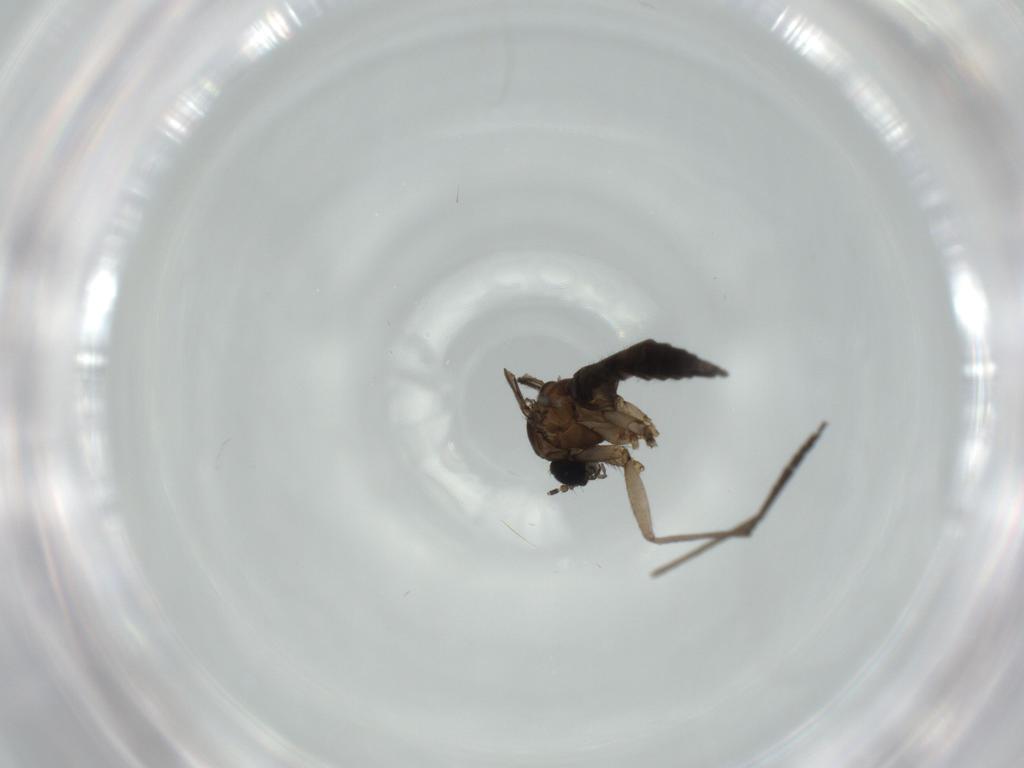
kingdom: Animalia
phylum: Arthropoda
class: Insecta
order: Diptera
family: Sciaridae
